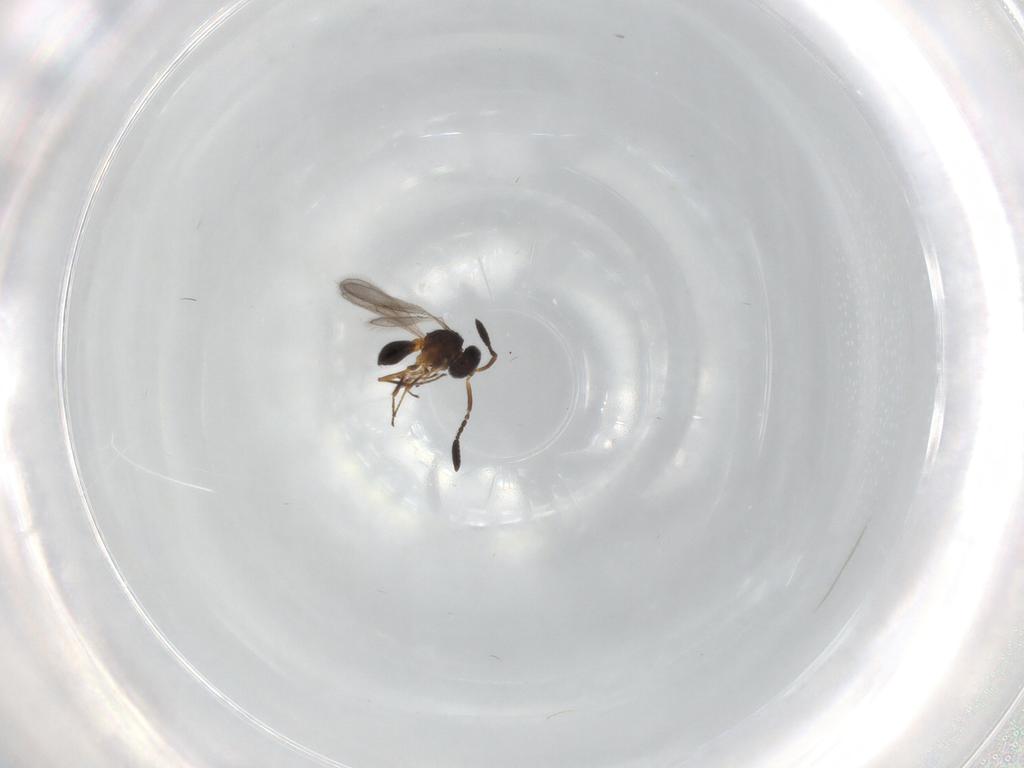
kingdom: Animalia
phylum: Arthropoda
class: Insecta
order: Hymenoptera
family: Scelionidae
